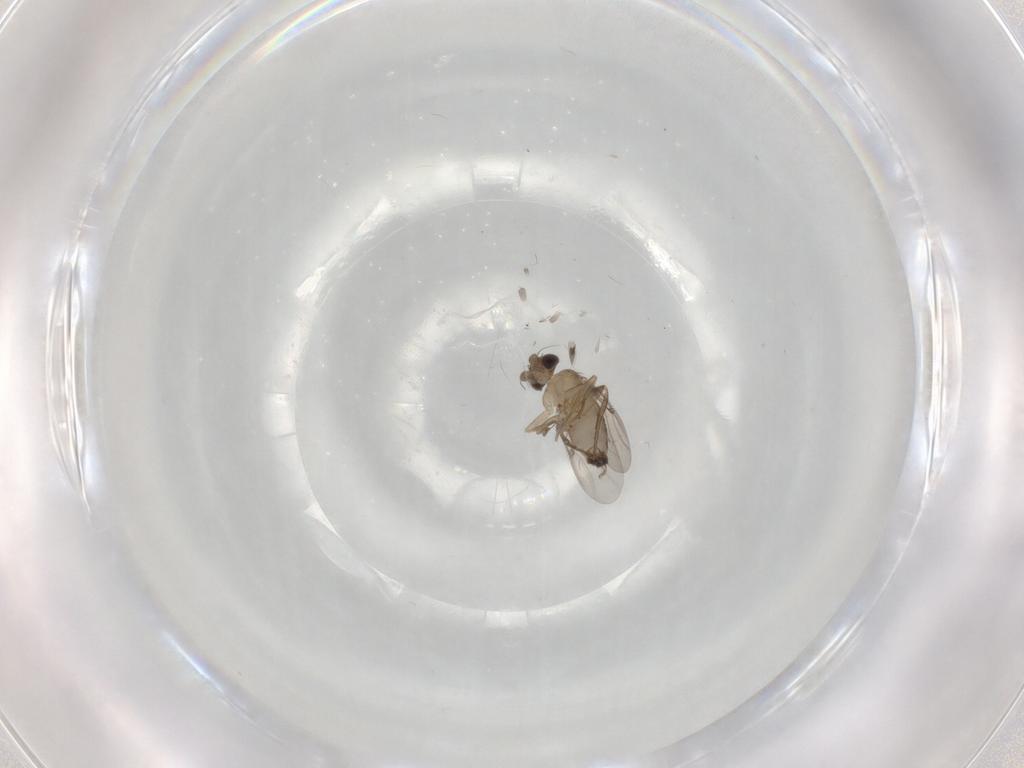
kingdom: Animalia
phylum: Arthropoda
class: Insecta
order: Diptera
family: Phoridae
